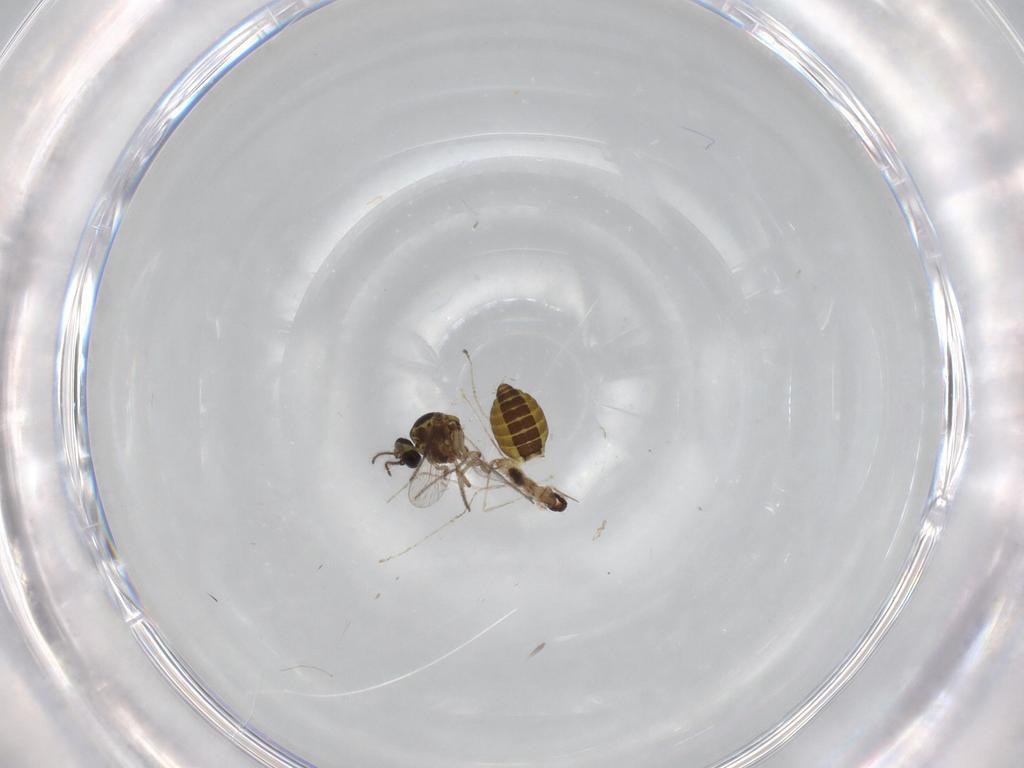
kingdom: Animalia
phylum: Arthropoda
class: Insecta
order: Diptera
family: Cecidomyiidae
